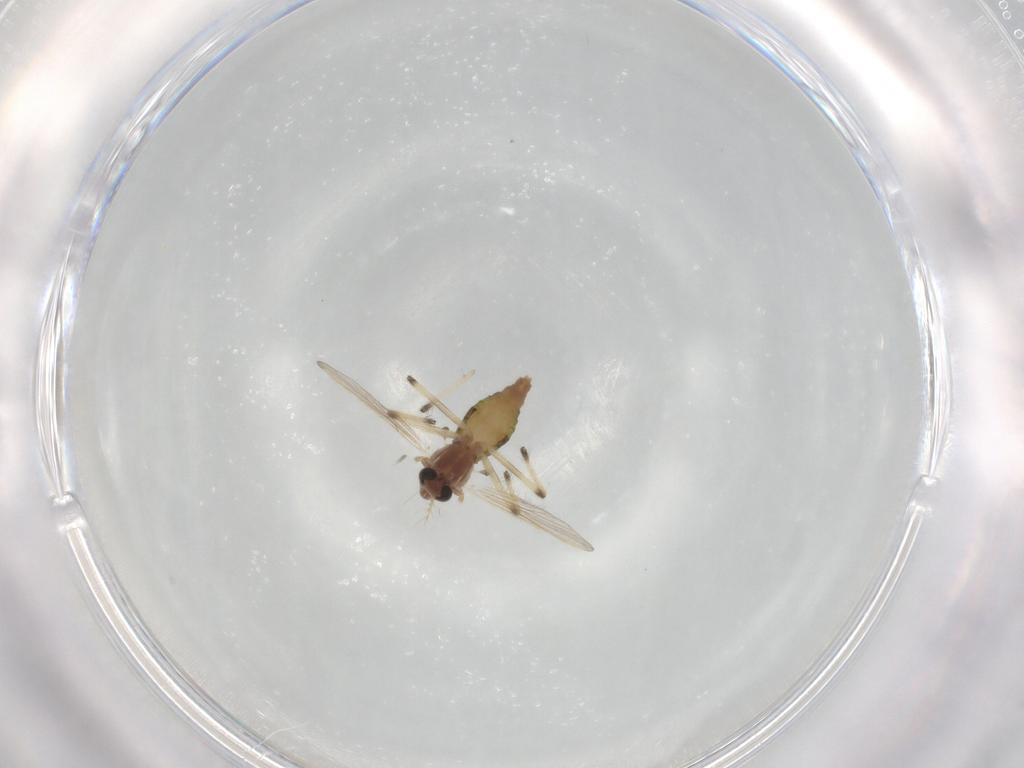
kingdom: Animalia
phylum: Arthropoda
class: Insecta
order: Diptera
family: Chironomidae
